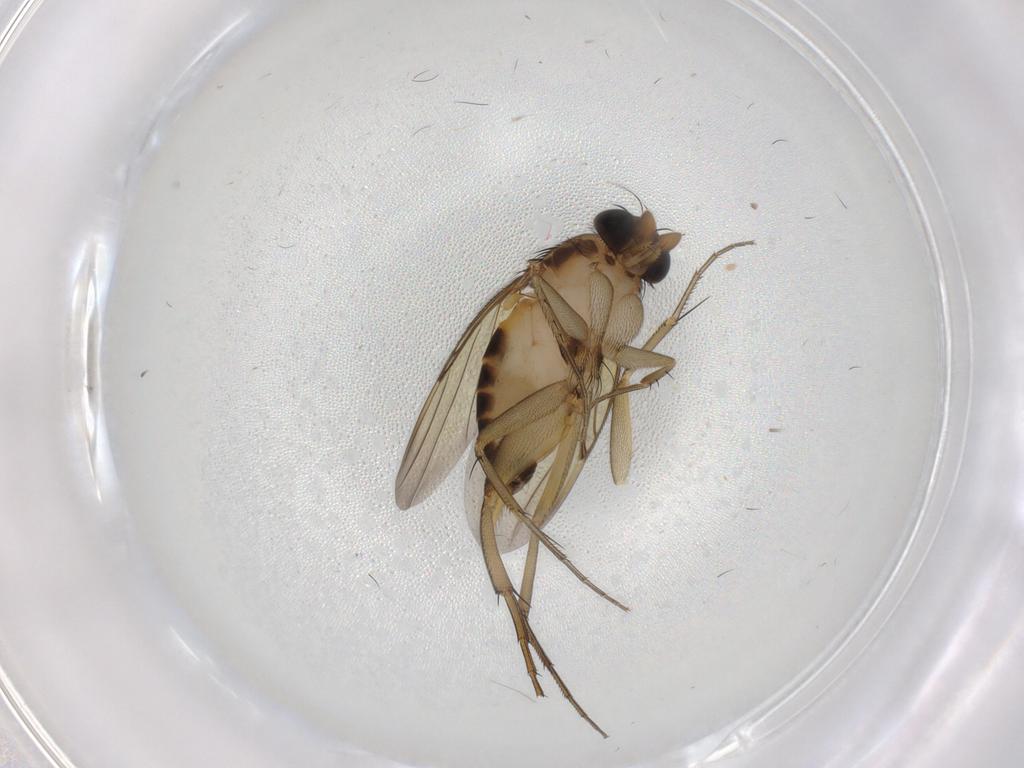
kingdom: Animalia
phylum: Arthropoda
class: Insecta
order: Diptera
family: Phoridae
